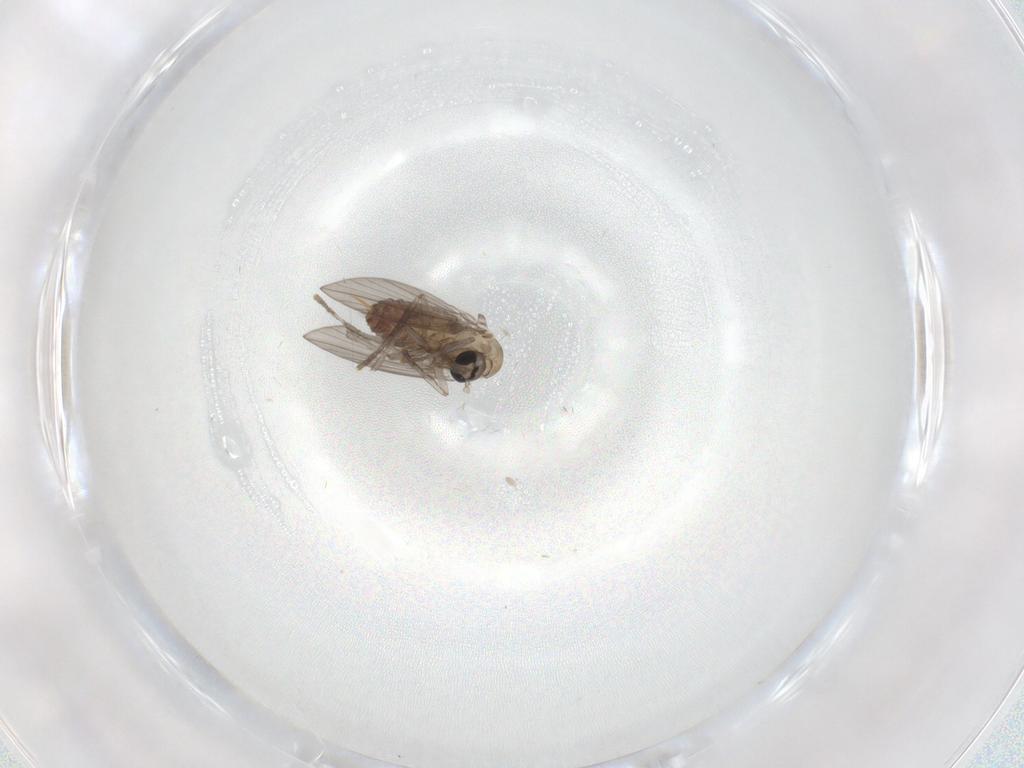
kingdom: Animalia
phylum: Arthropoda
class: Insecta
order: Diptera
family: Psychodidae
